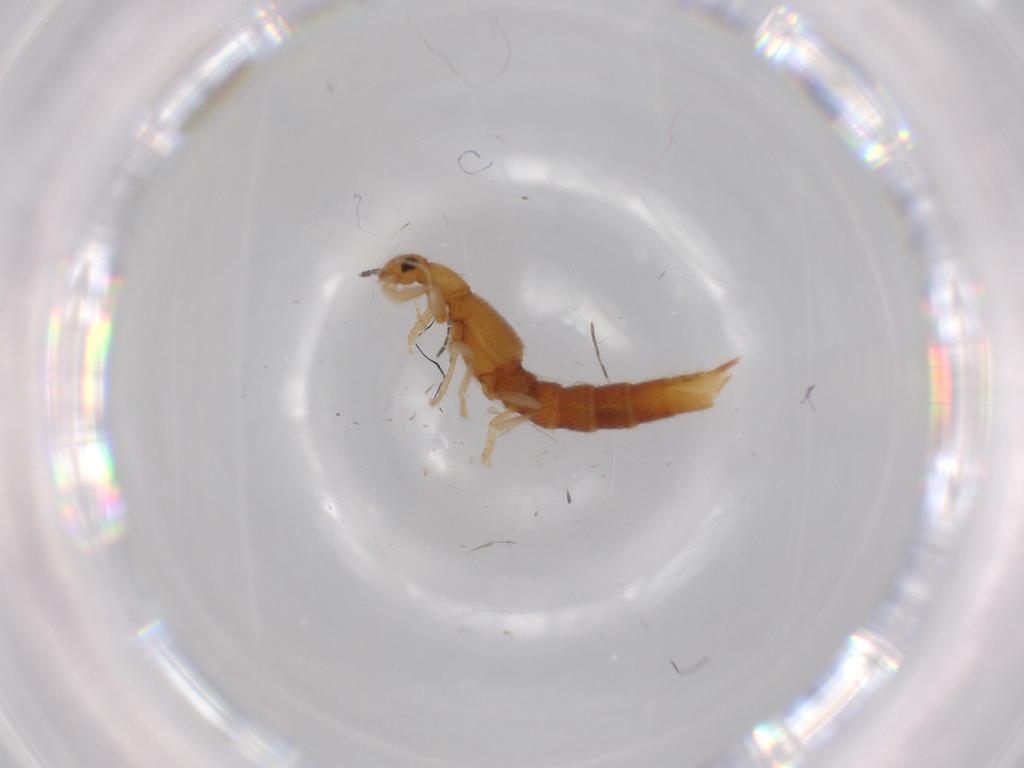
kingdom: Animalia
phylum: Arthropoda
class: Insecta
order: Coleoptera
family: Staphylinidae
